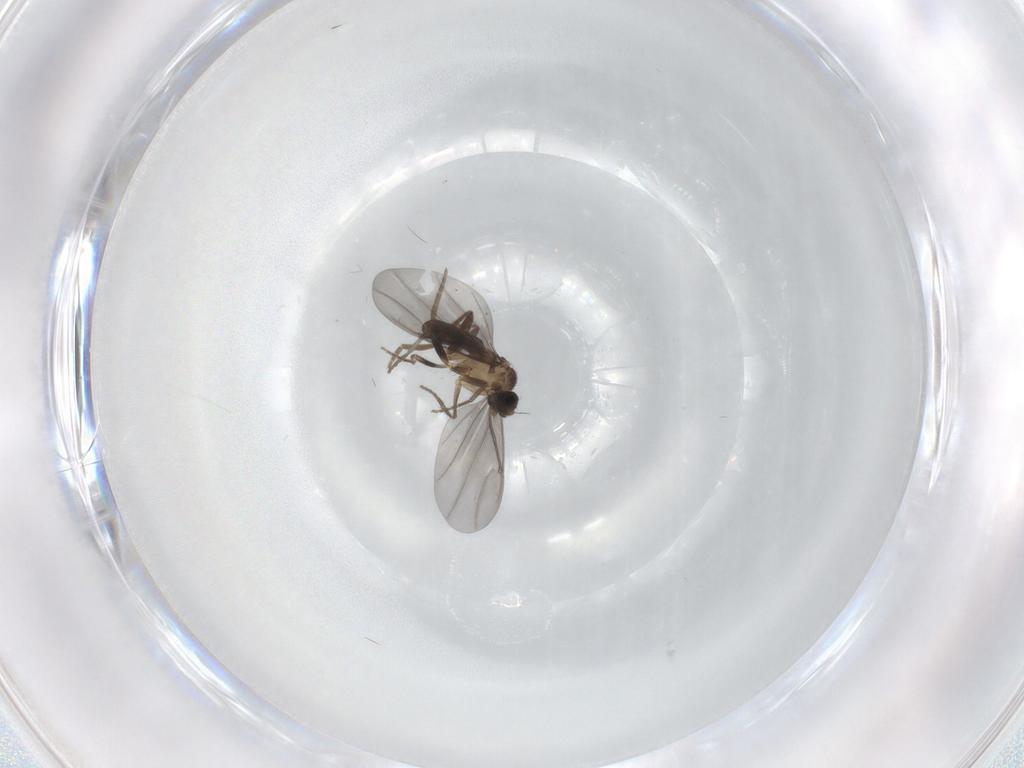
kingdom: Animalia
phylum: Arthropoda
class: Insecta
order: Diptera
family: Phoridae
